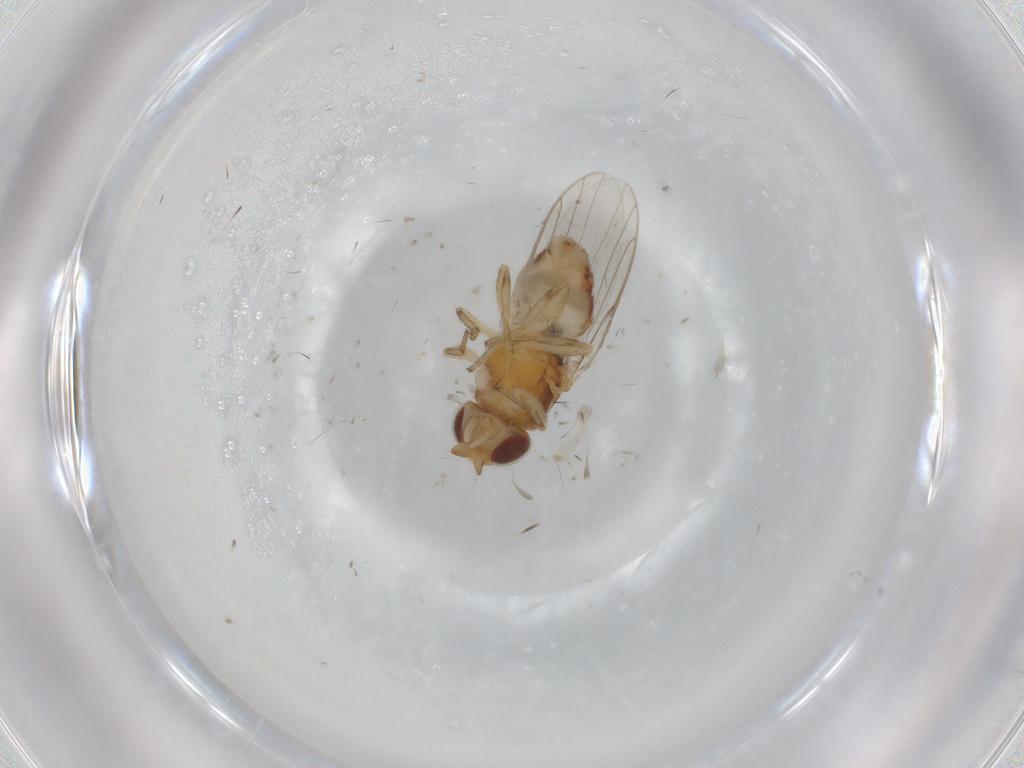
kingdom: Animalia
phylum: Arthropoda
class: Insecta
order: Diptera
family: Chloropidae
